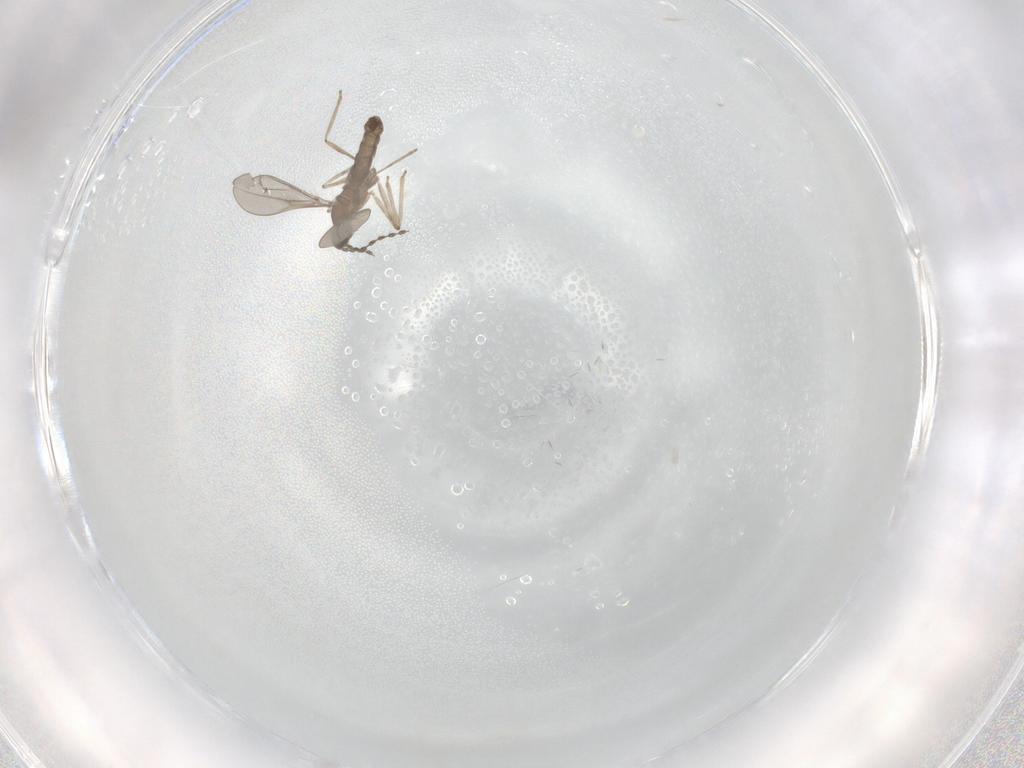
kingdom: Animalia
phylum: Arthropoda
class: Insecta
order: Diptera
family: Cecidomyiidae
